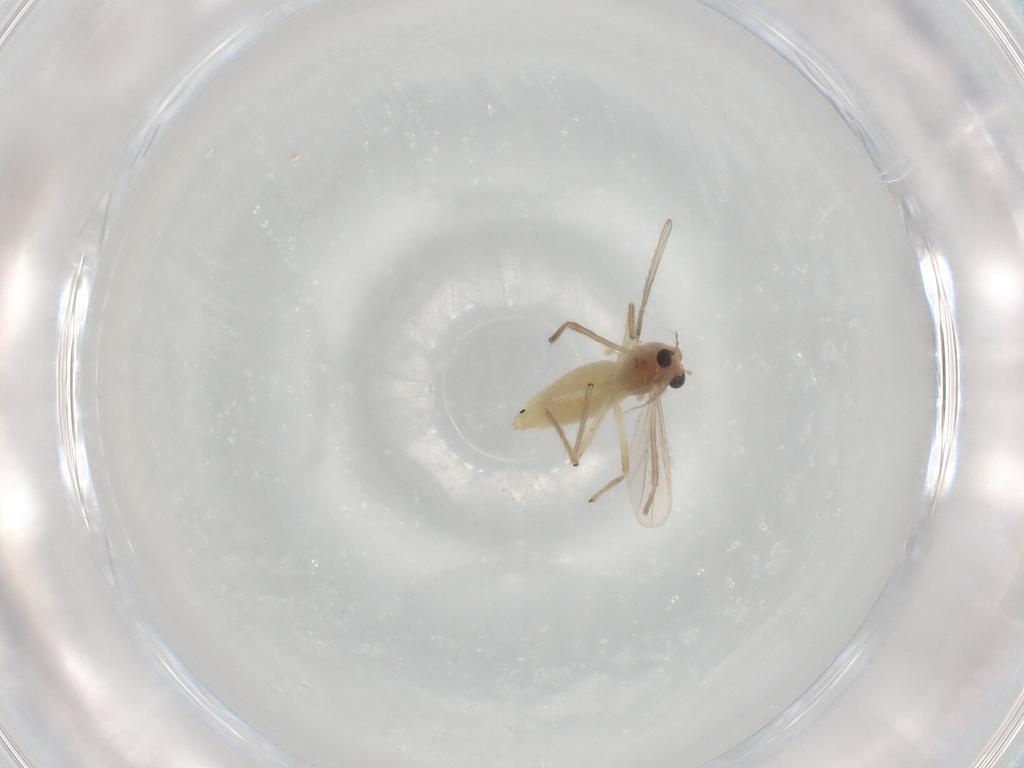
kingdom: Animalia
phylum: Arthropoda
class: Insecta
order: Diptera
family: Chironomidae
